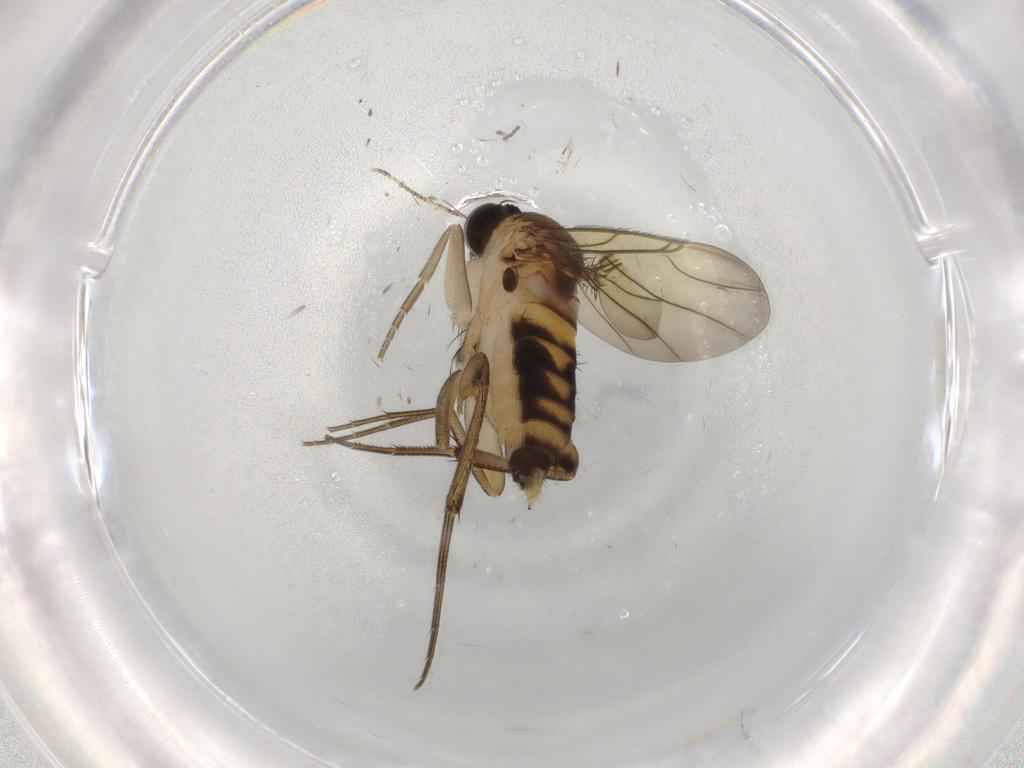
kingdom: Animalia
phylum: Arthropoda
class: Insecta
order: Diptera
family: Phoridae
